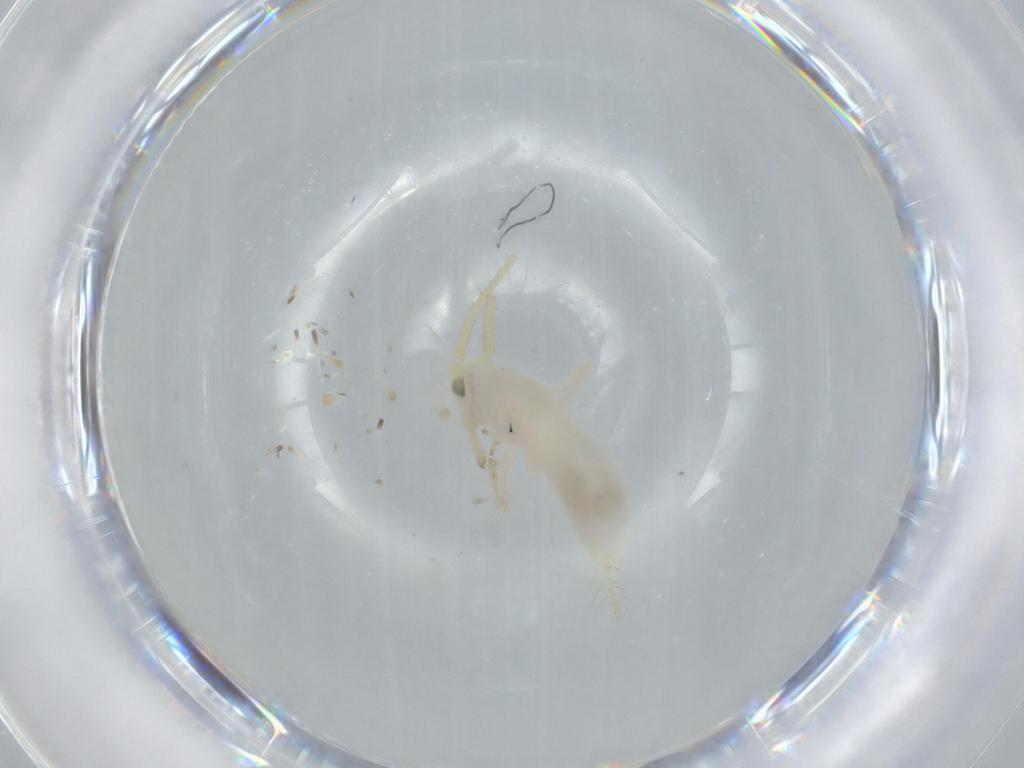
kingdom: Animalia
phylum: Arthropoda
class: Insecta
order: Orthoptera
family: Trigonidiidae
